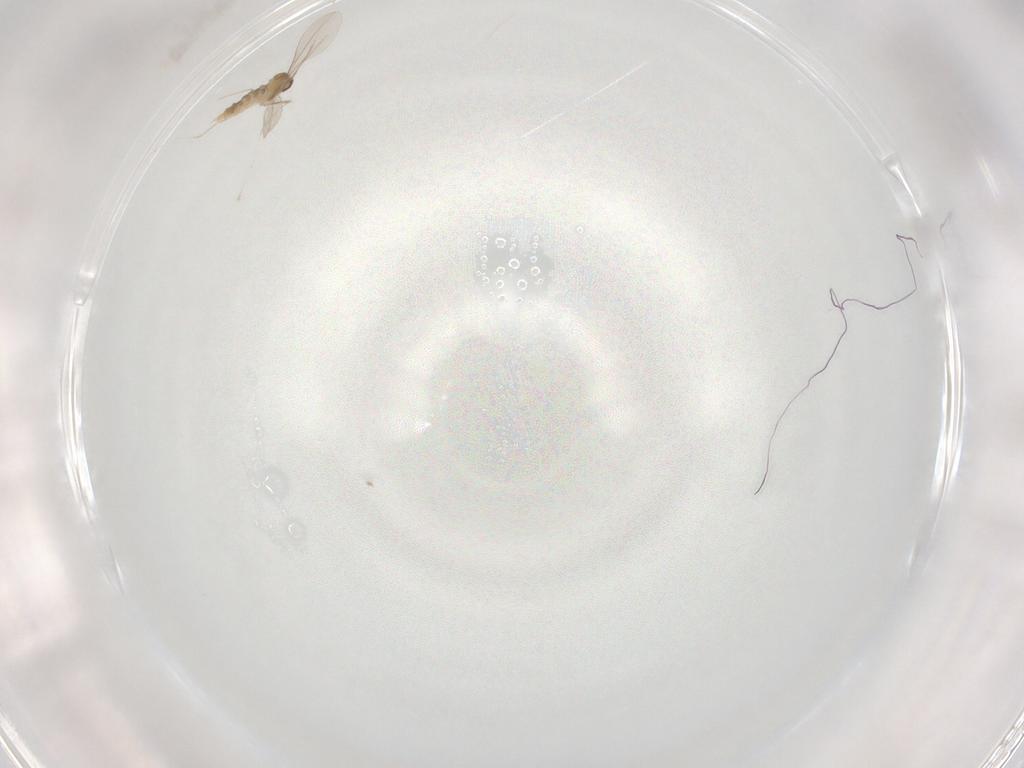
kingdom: Animalia
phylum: Arthropoda
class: Insecta
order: Diptera
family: Cecidomyiidae
